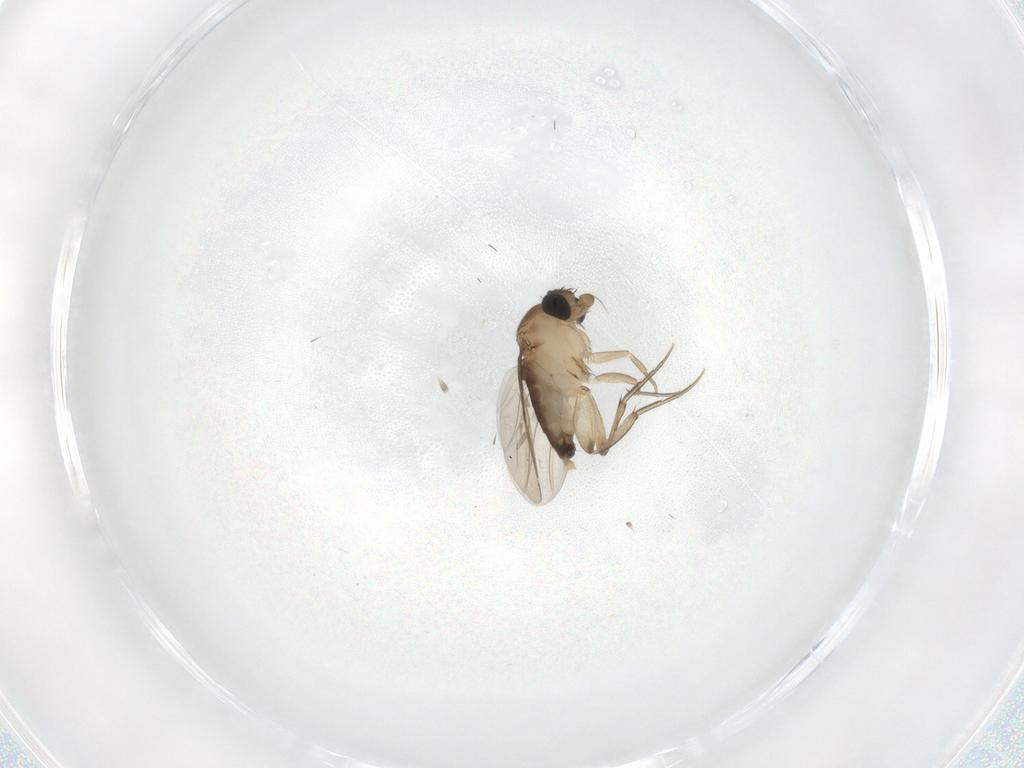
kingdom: Animalia
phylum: Arthropoda
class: Insecta
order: Diptera
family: Phoridae
